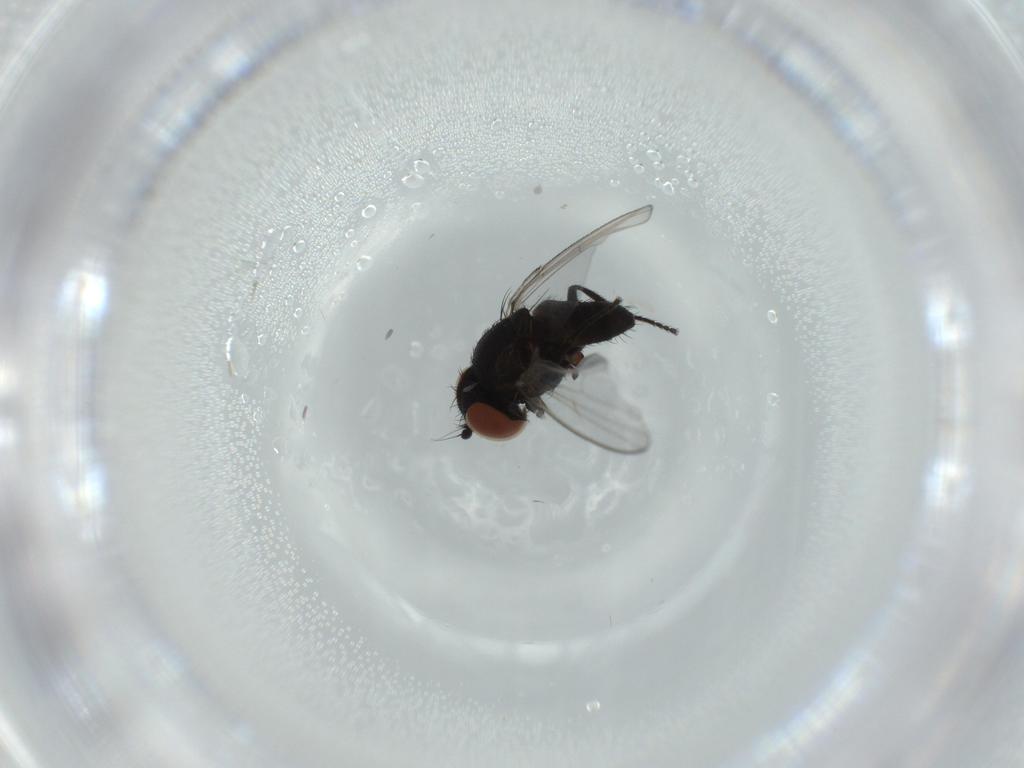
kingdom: Animalia
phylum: Arthropoda
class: Insecta
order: Diptera
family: Milichiidae
